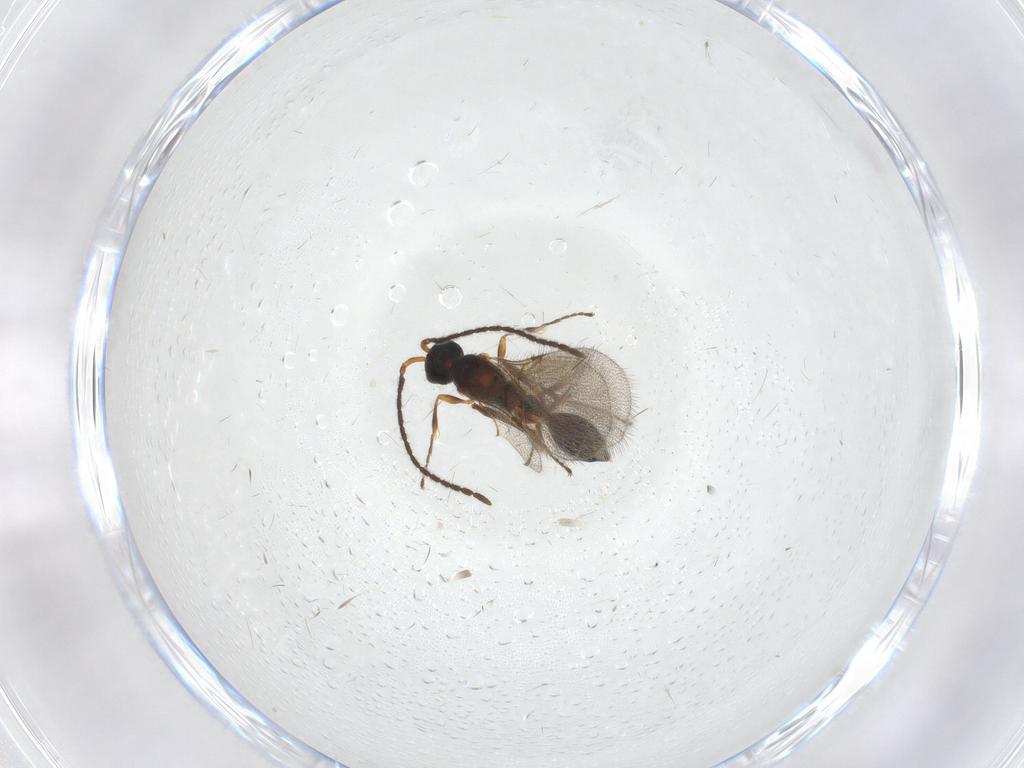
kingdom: Animalia
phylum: Arthropoda
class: Insecta
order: Hymenoptera
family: Diapriidae
